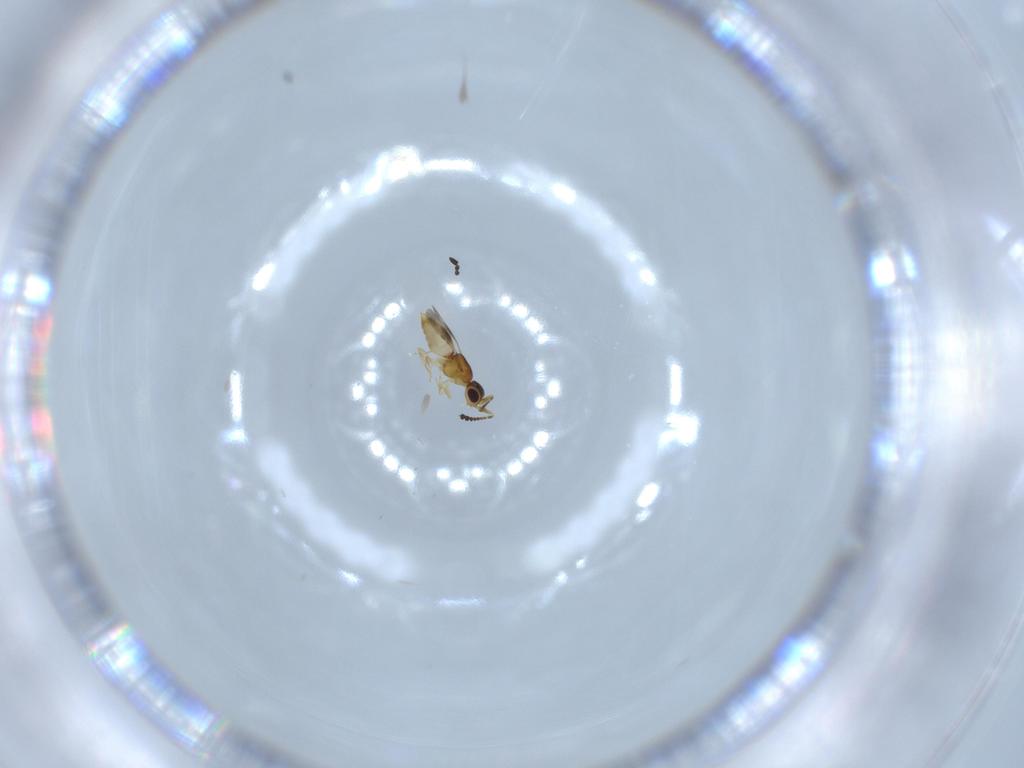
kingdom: Animalia
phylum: Arthropoda
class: Insecta
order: Hymenoptera
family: Ceraphronidae
